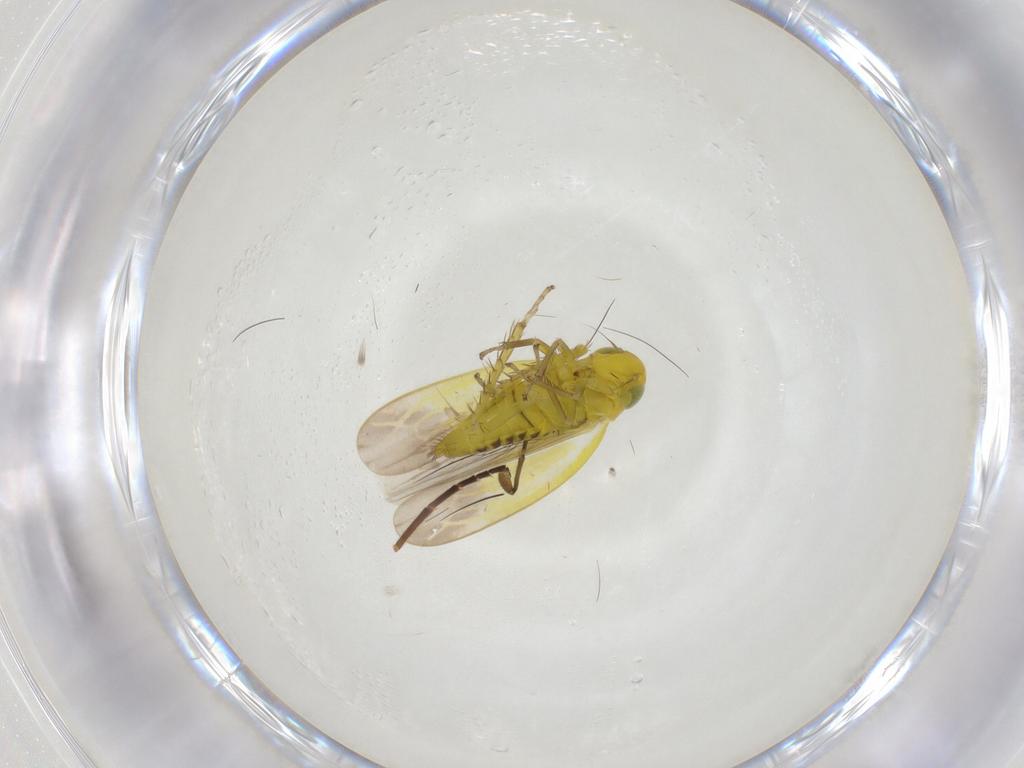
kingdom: Animalia
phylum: Arthropoda
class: Insecta
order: Hemiptera
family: Cicadellidae
